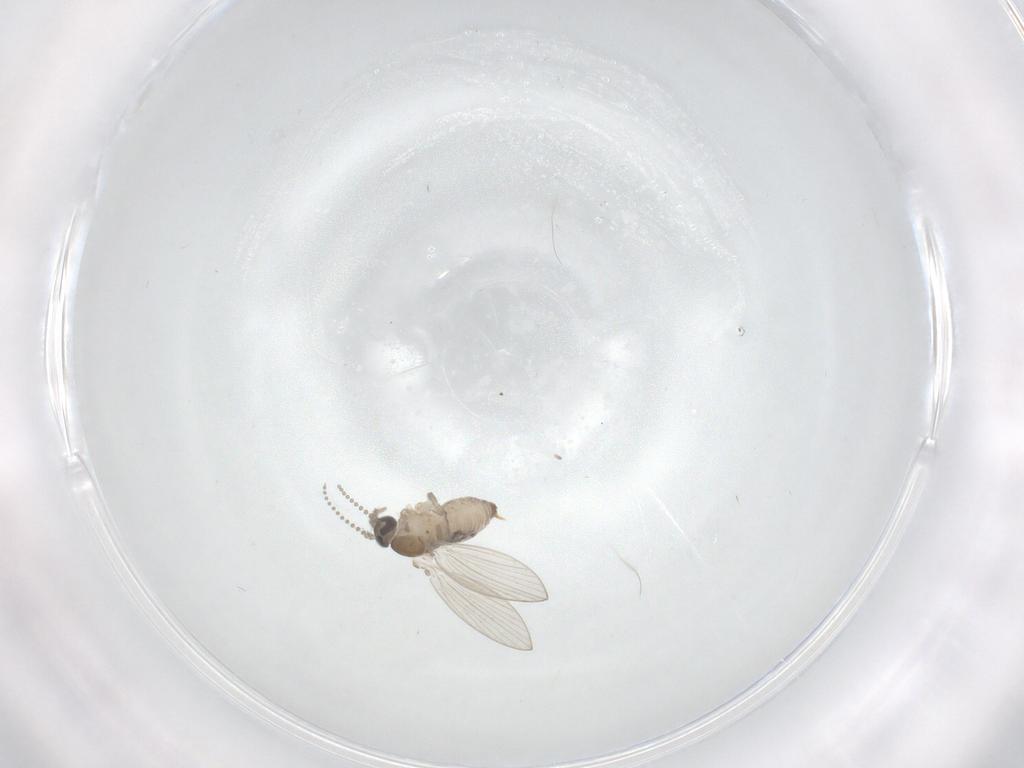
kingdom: Animalia
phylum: Arthropoda
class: Insecta
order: Diptera
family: Psychodidae
